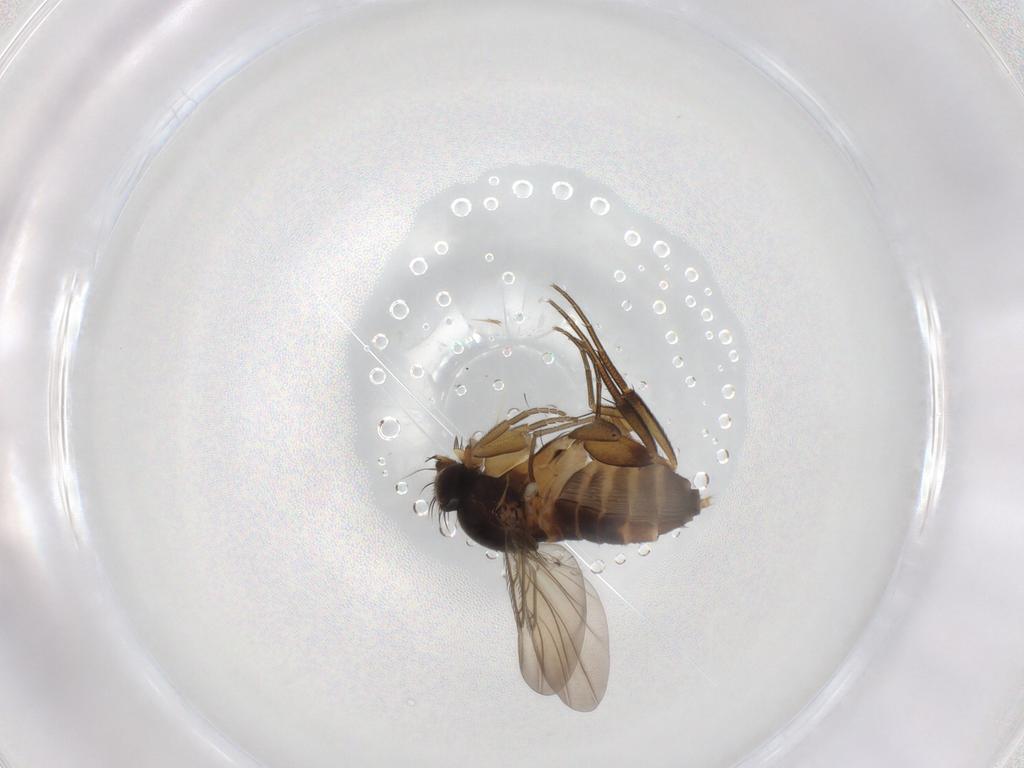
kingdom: Animalia
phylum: Arthropoda
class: Insecta
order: Diptera
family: Phoridae
